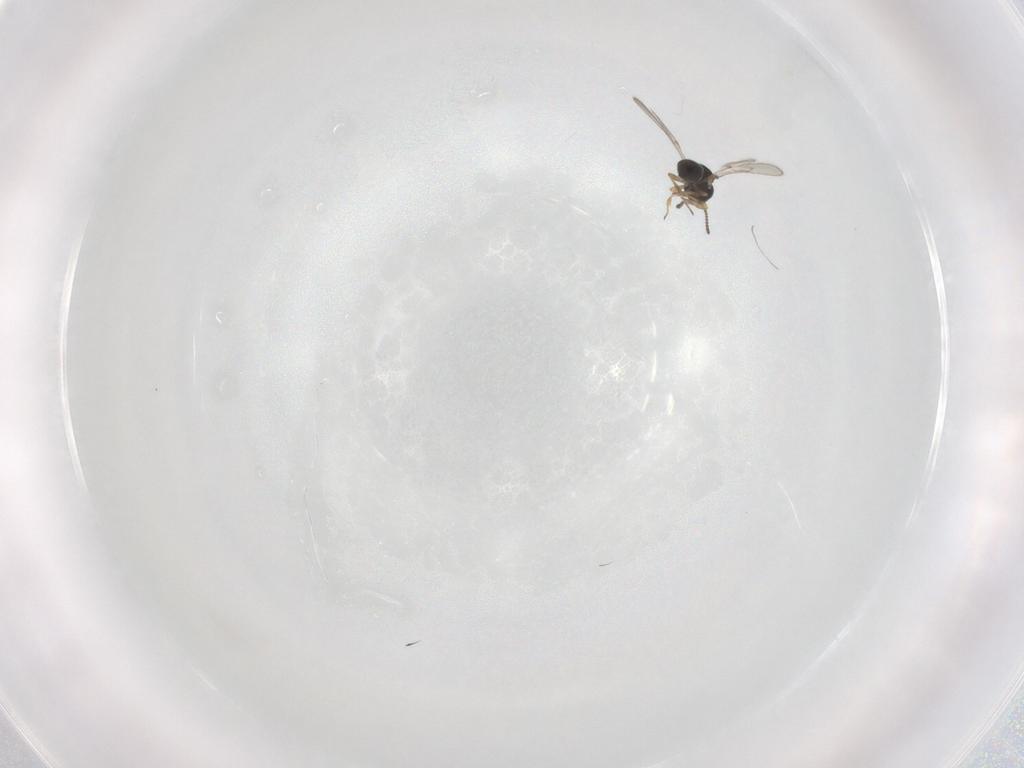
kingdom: Animalia
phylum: Arthropoda
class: Insecta
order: Hymenoptera
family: Scelionidae
